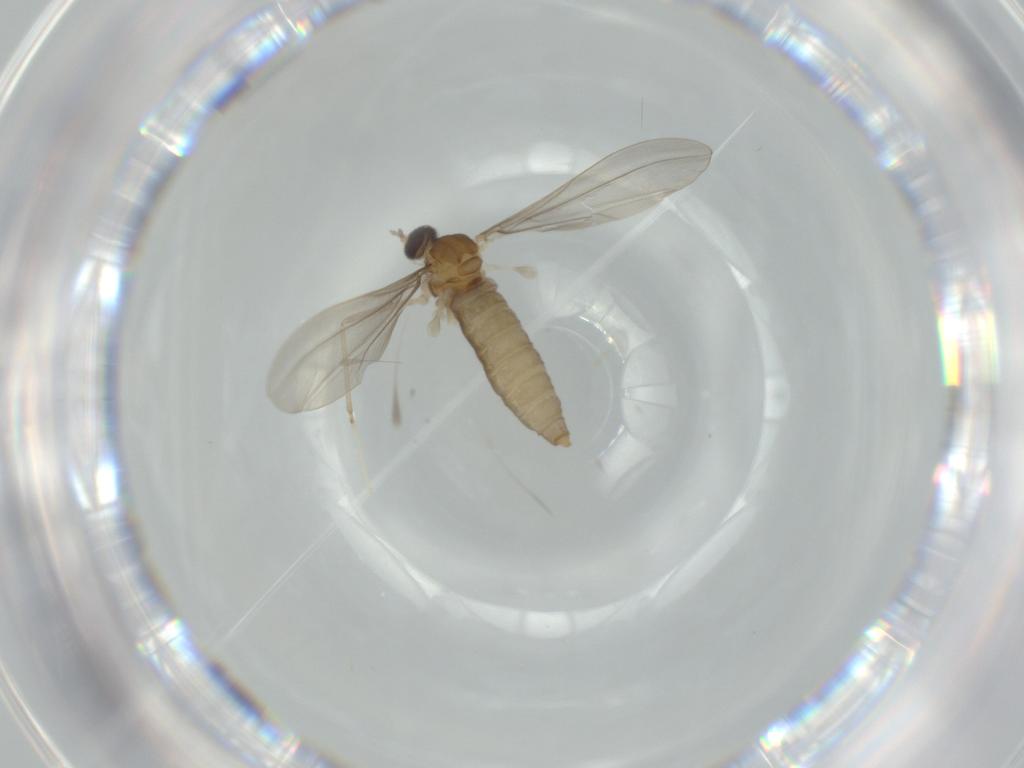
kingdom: Animalia
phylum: Arthropoda
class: Insecta
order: Diptera
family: Cecidomyiidae
